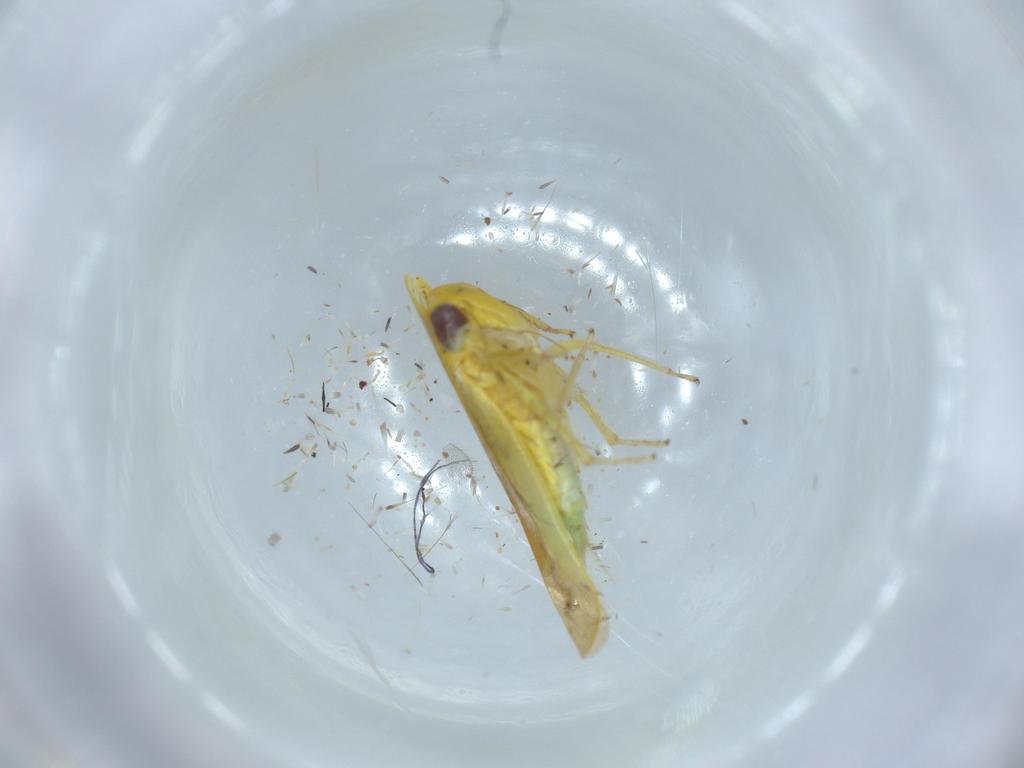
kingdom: Animalia
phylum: Arthropoda
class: Insecta
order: Hemiptera
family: Cicadellidae
